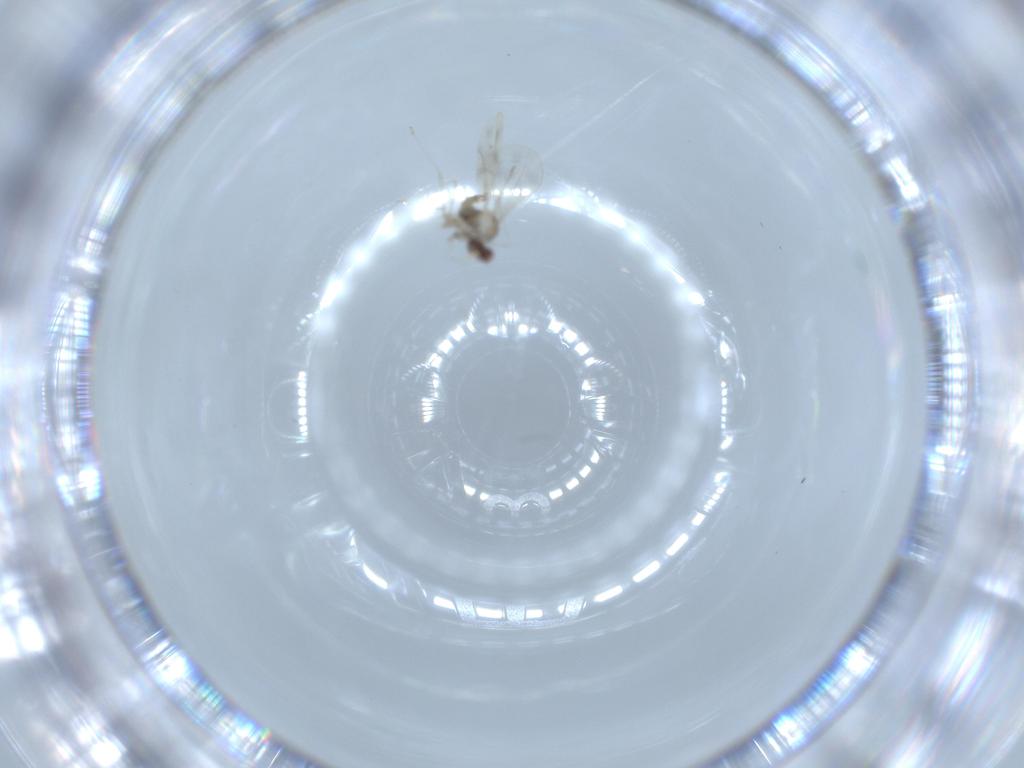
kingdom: Animalia
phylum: Arthropoda
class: Insecta
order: Diptera
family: Cecidomyiidae
